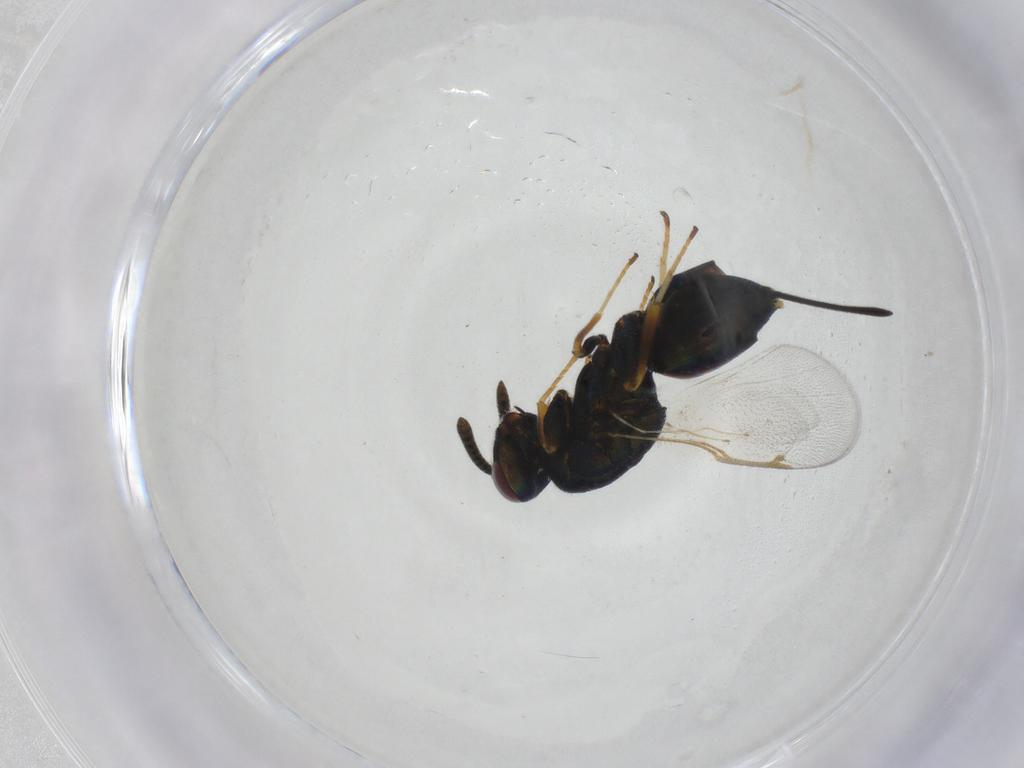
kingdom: Animalia
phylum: Arthropoda
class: Insecta
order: Hymenoptera
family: Torymidae
